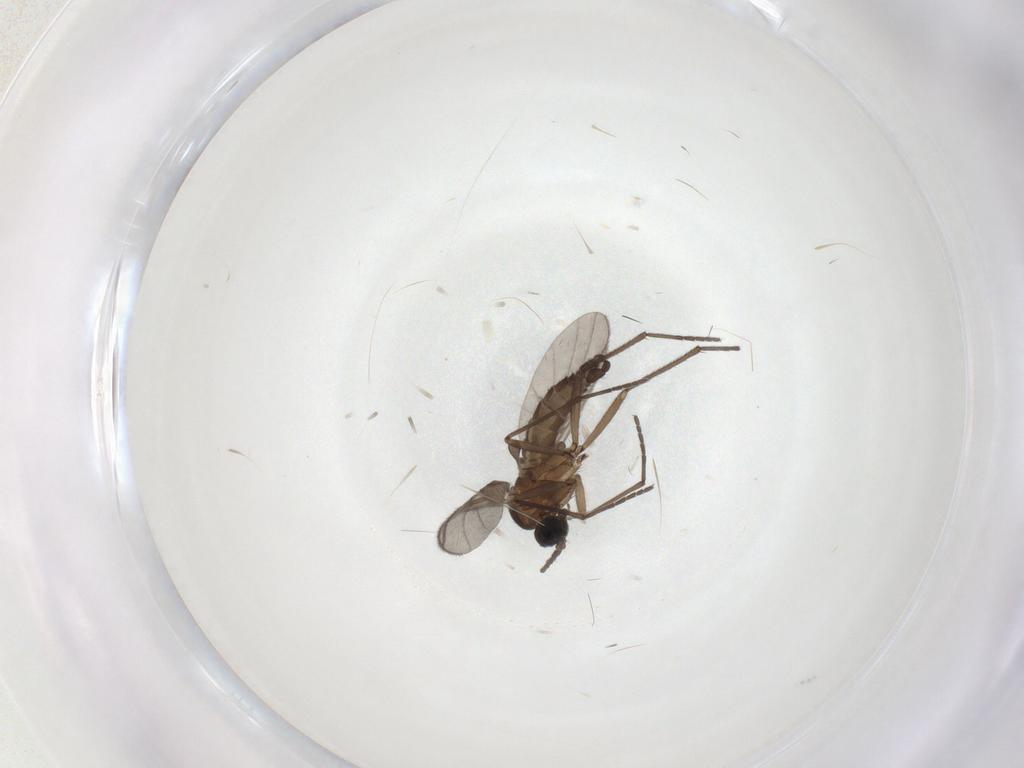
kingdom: Animalia
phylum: Arthropoda
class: Insecta
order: Diptera
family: Sciaridae
